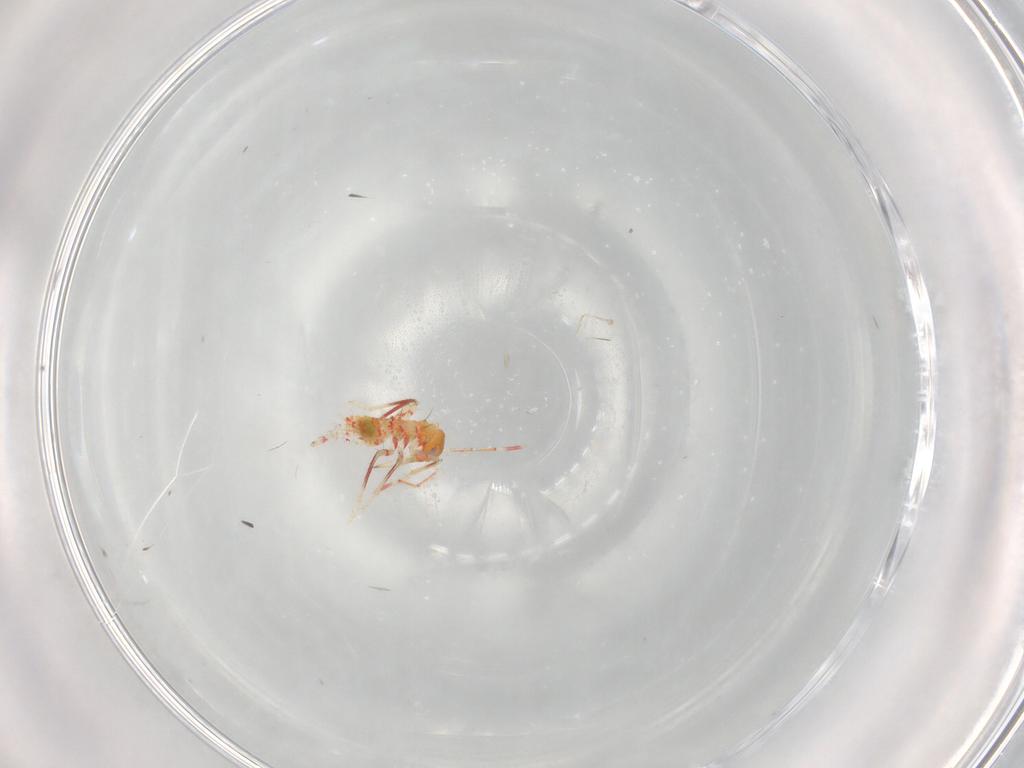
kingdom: Animalia
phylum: Arthropoda
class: Insecta
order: Hemiptera
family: Miridae
